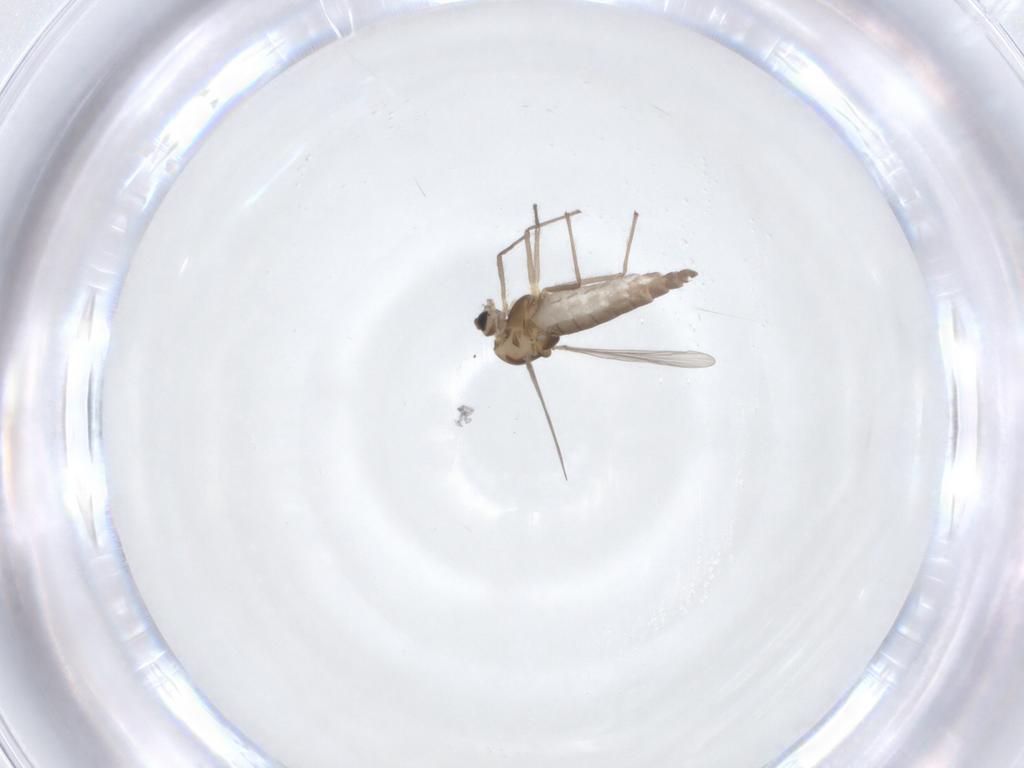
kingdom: Animalia
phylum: Arthropoda
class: Insecta
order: Diptera
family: Chironomidae
